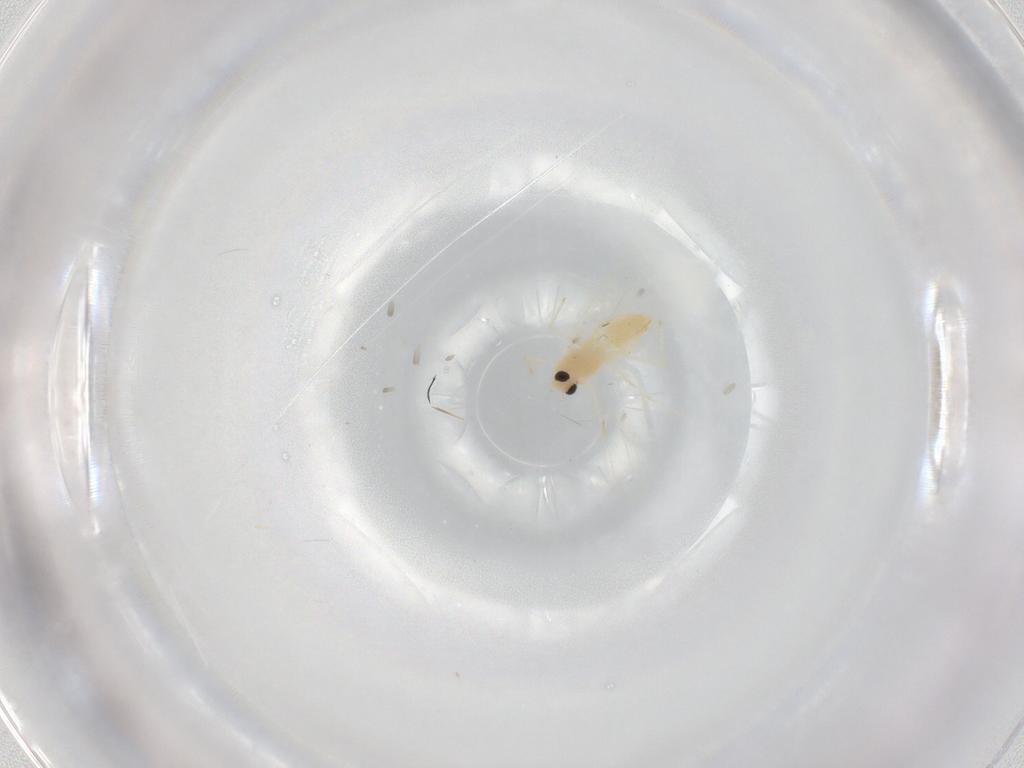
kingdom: Animalia
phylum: Arthropoda
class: Insecta
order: Diptera
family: Chironomidae
